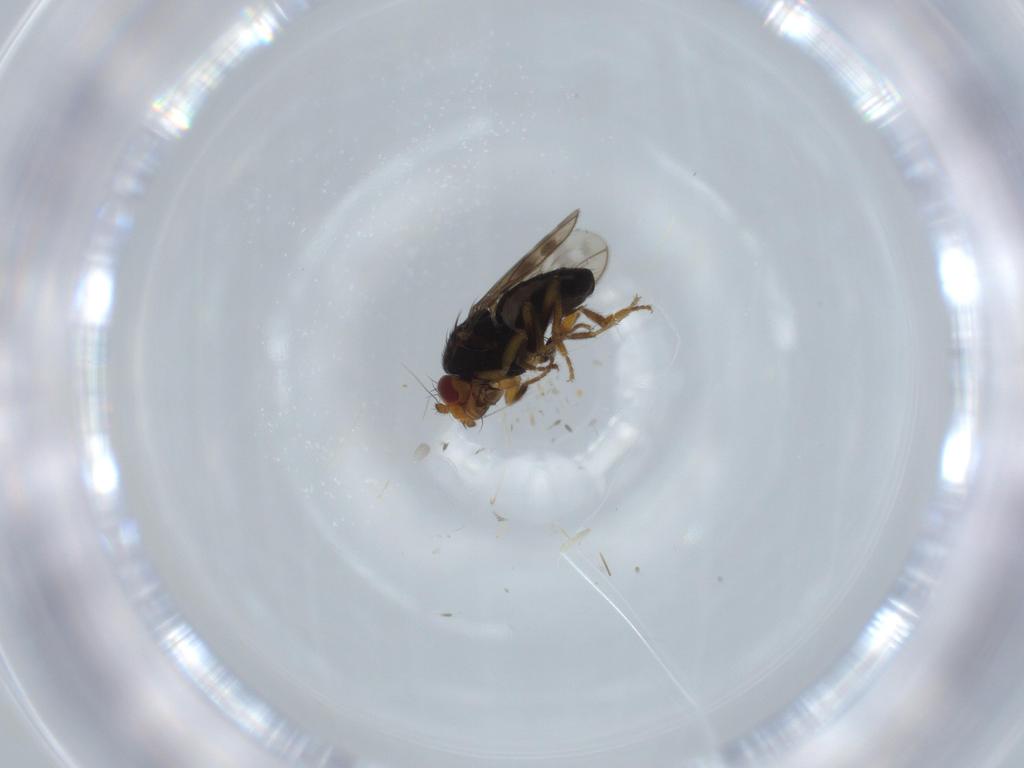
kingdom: Animalia
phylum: Arthropoda
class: Insecta
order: Diptera
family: Sphaeroceridae
